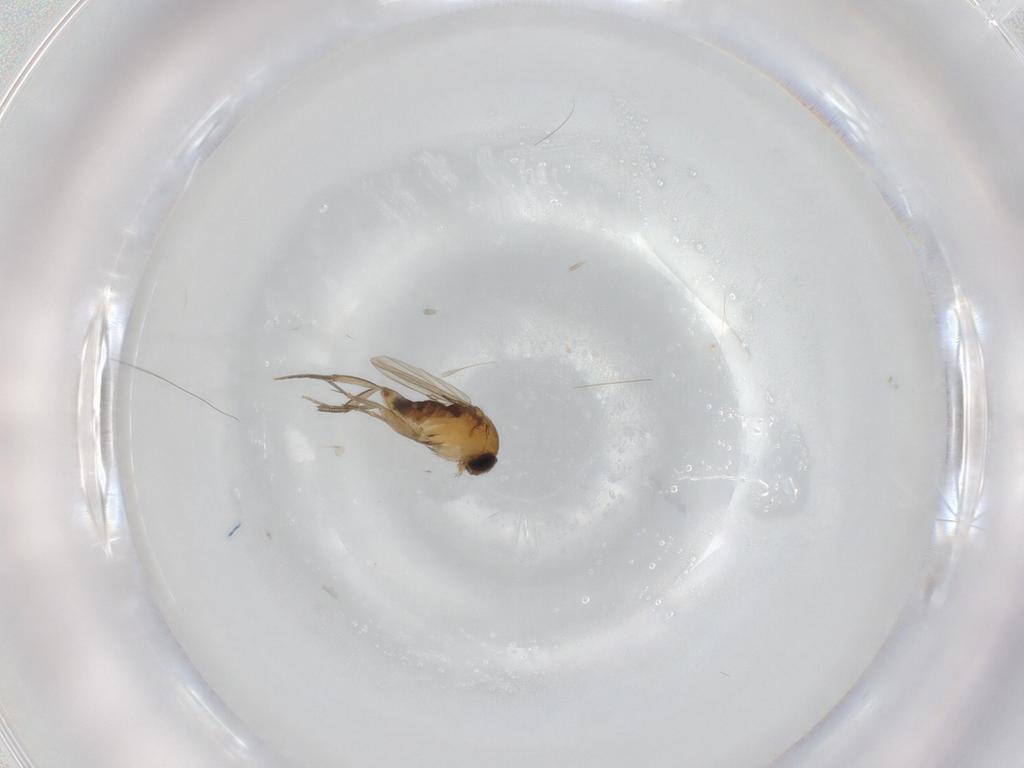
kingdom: Animalia
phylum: Arthropoda
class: Insecta
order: Diptera
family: Phoridae
